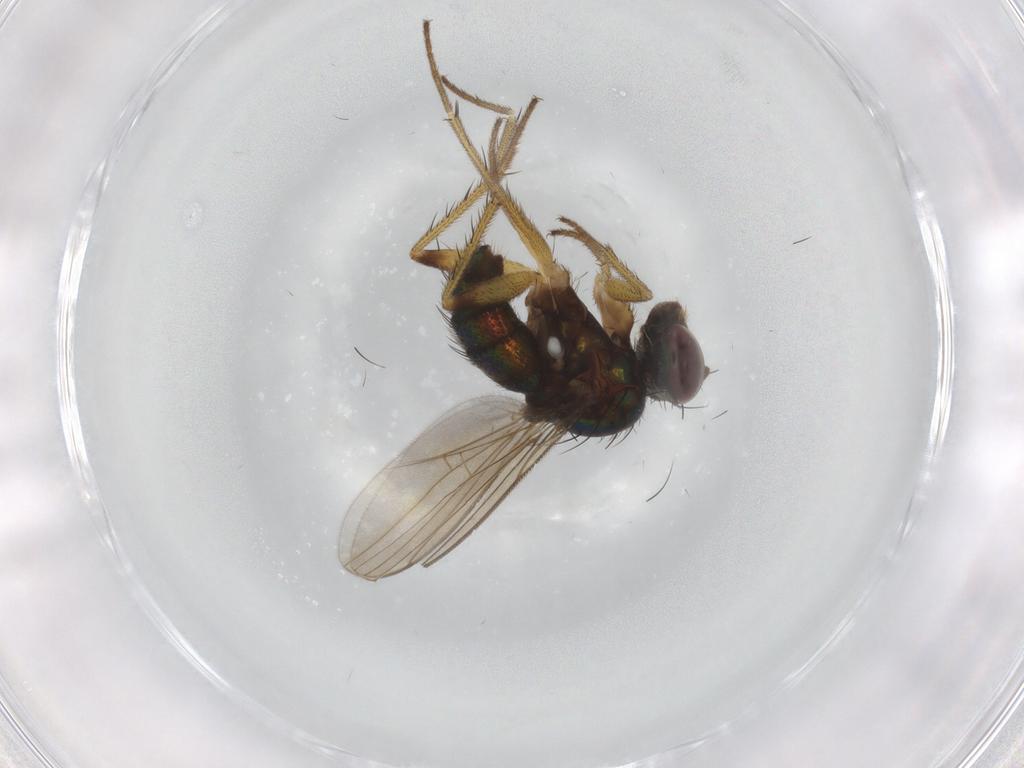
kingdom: Animalia
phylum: Arthropoda
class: Insecta
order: Diptera
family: Dolichopodidae
